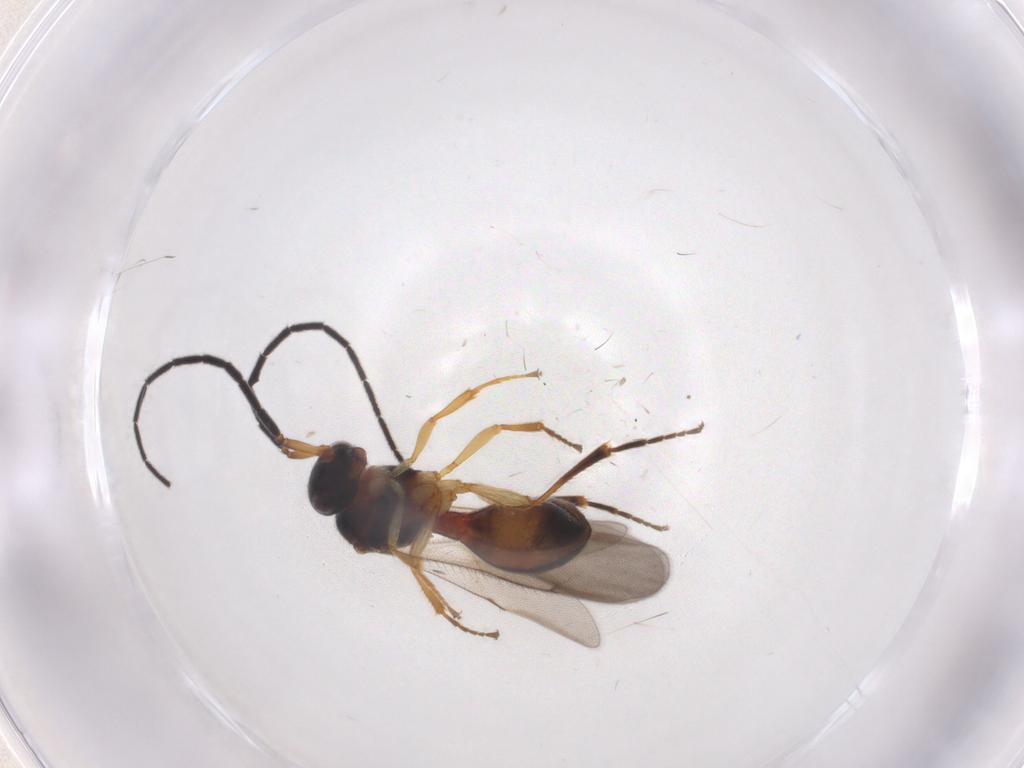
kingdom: Animalia
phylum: Arthropoda
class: Insecta
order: Hymenoptera
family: Scelionidae
